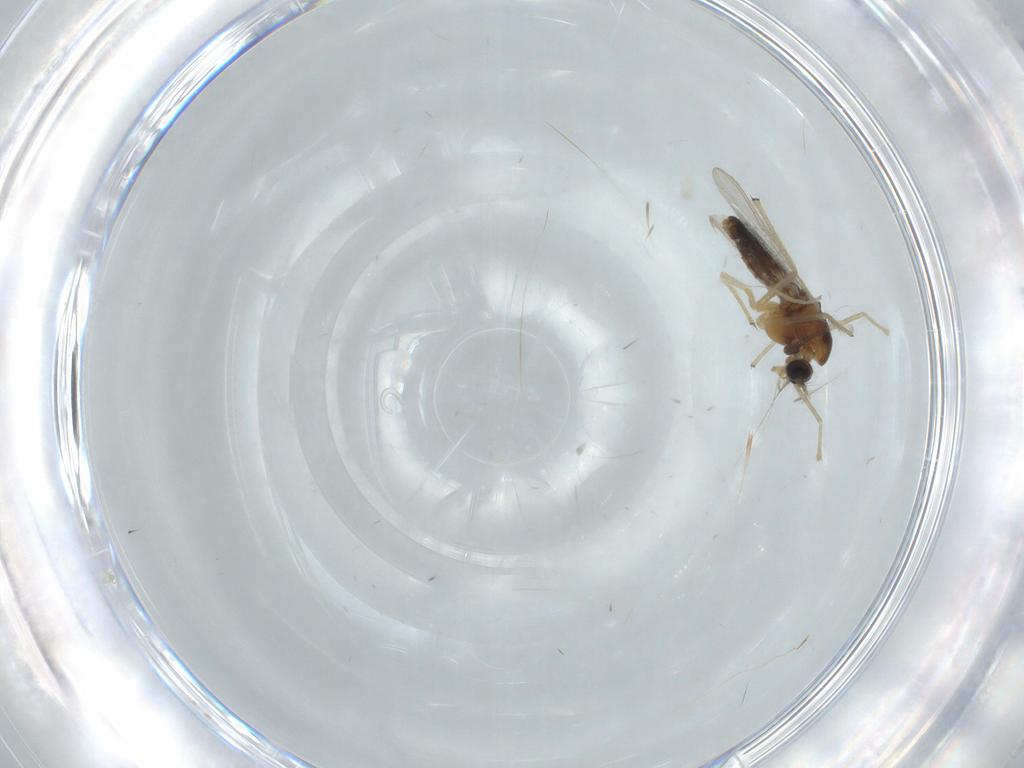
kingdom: Animalia
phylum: Arthropoda
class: Insecta
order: Diptera
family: Chironomidae
